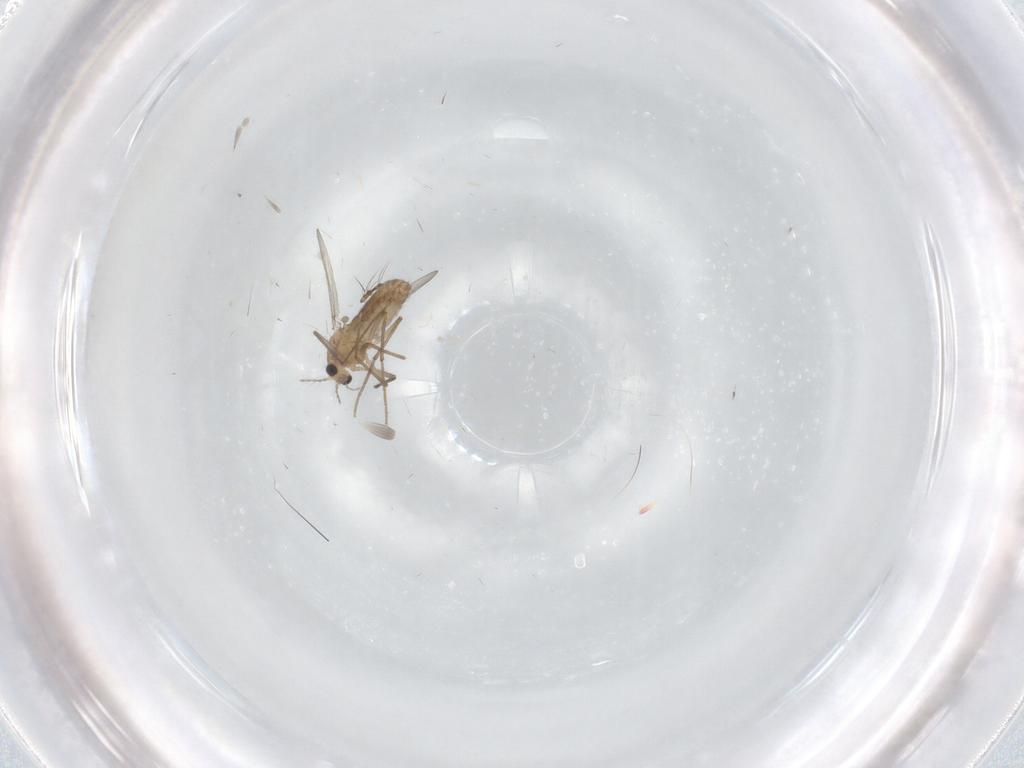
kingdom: Animalia
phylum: Arthropoda
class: Insecta
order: Diptera
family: Chironomidae
